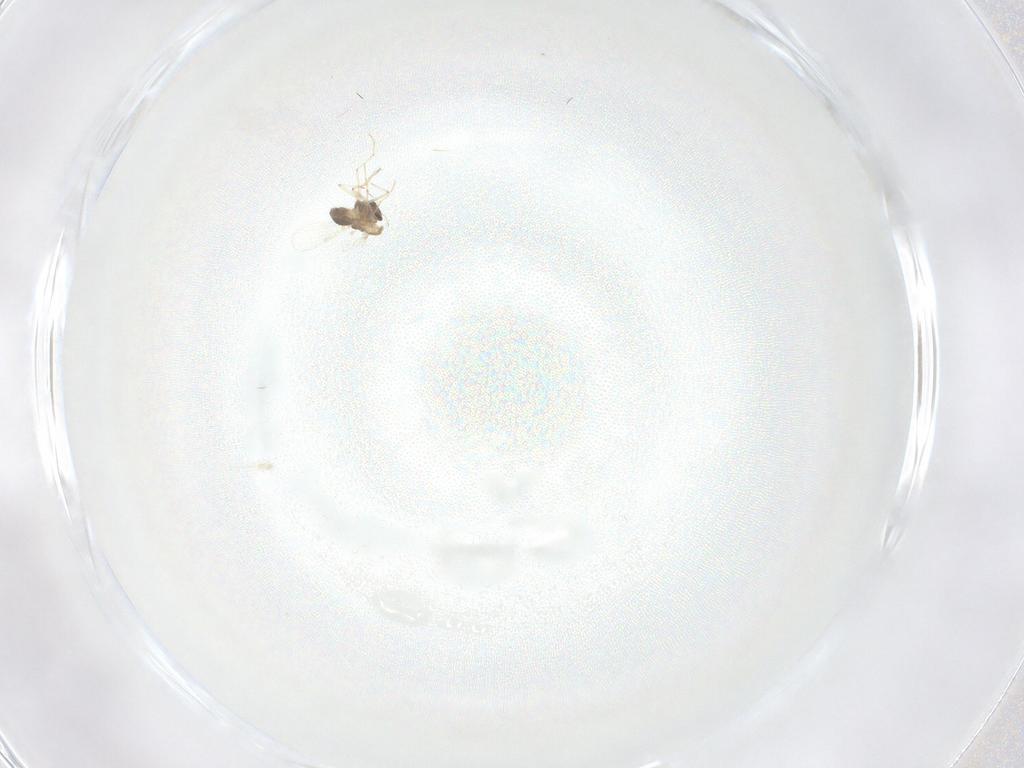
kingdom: Animalia
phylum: Arthropoda
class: Insecta
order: Diptera
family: Chironomidae
